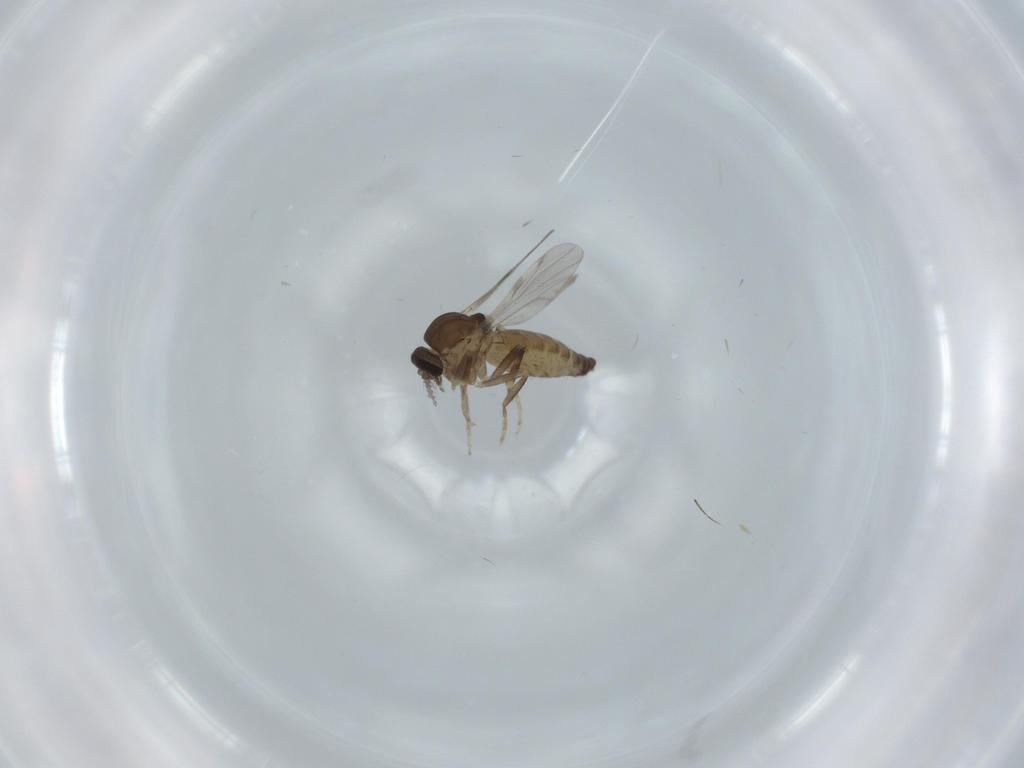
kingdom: Animalia
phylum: Arthropoda
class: Insecta
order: Diptera
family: Ceratopogonidae
